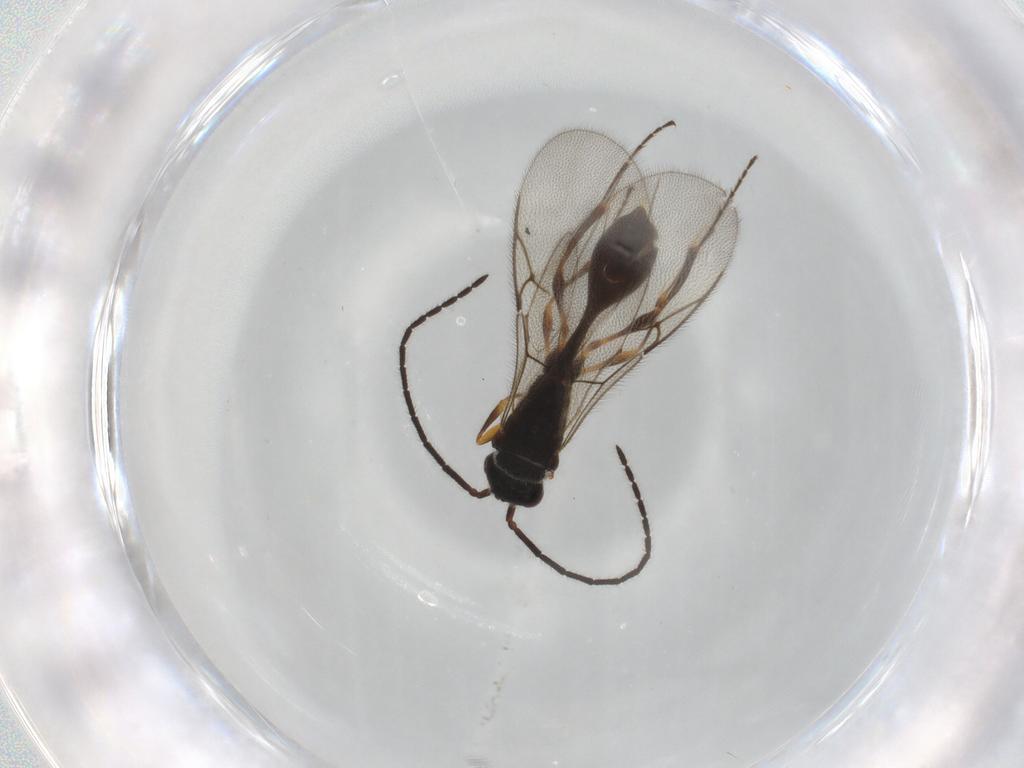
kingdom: Animalia
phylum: Arthropoda
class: Insecta
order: Hymenoptera
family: Diapriidae
